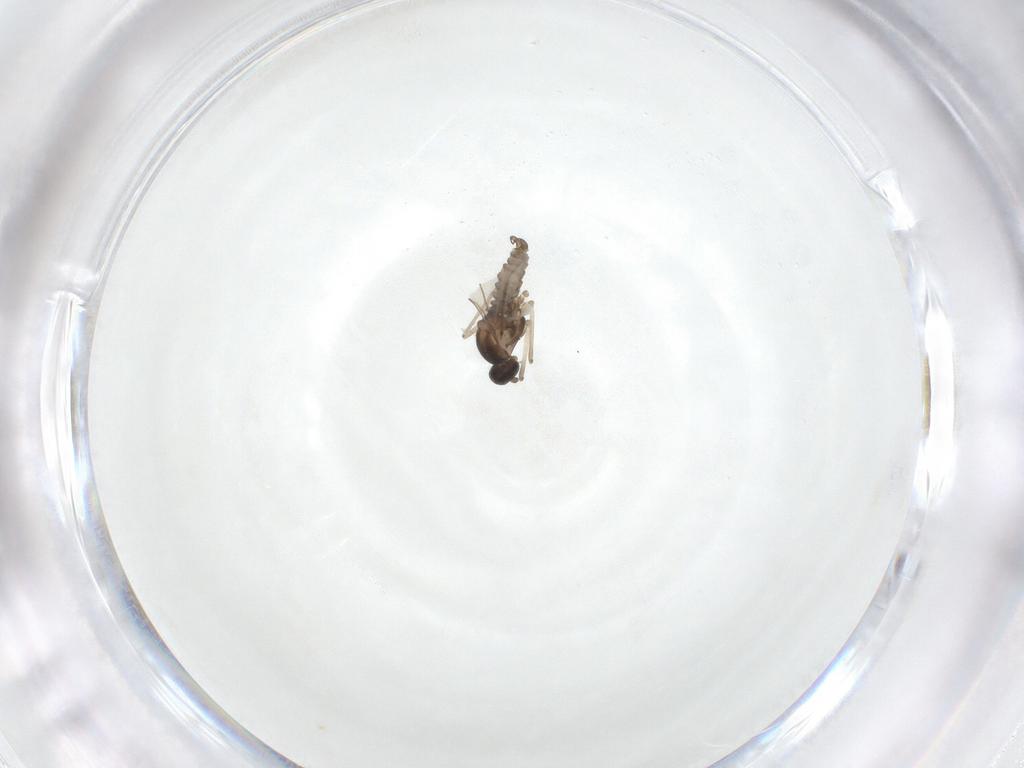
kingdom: Animalia
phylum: Arthropoda
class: Insecta
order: Diptera
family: Cecidomyiidae
